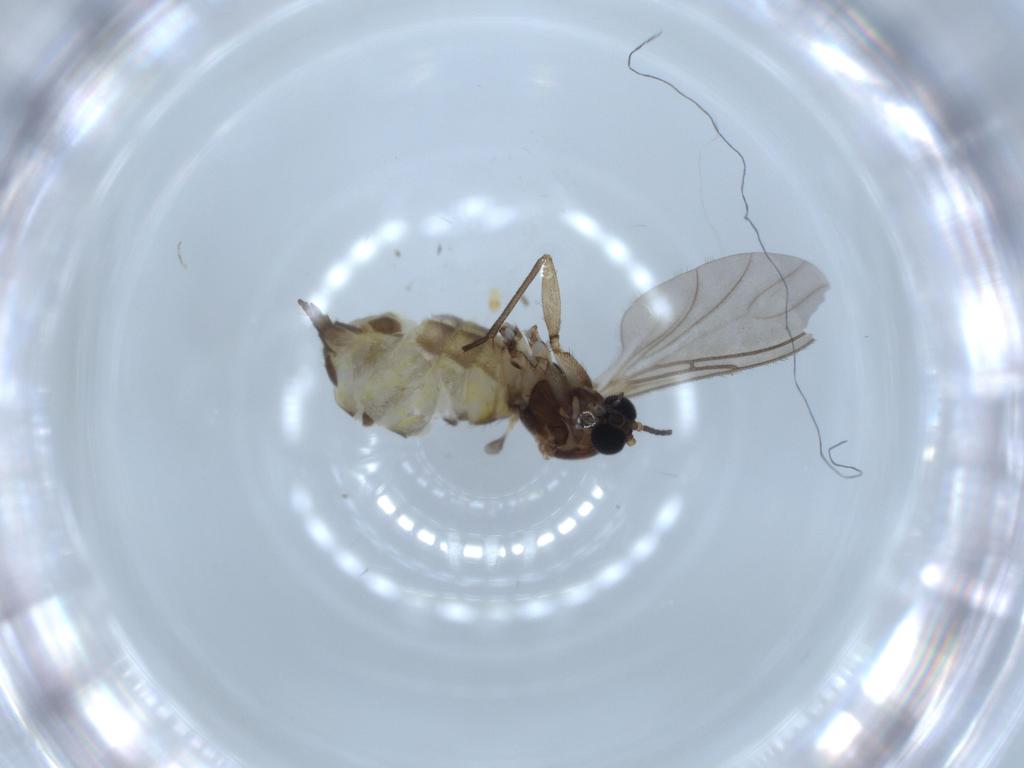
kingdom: Animalia
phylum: Arthropoda
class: Insecta
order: Diptera
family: Sciaridae
